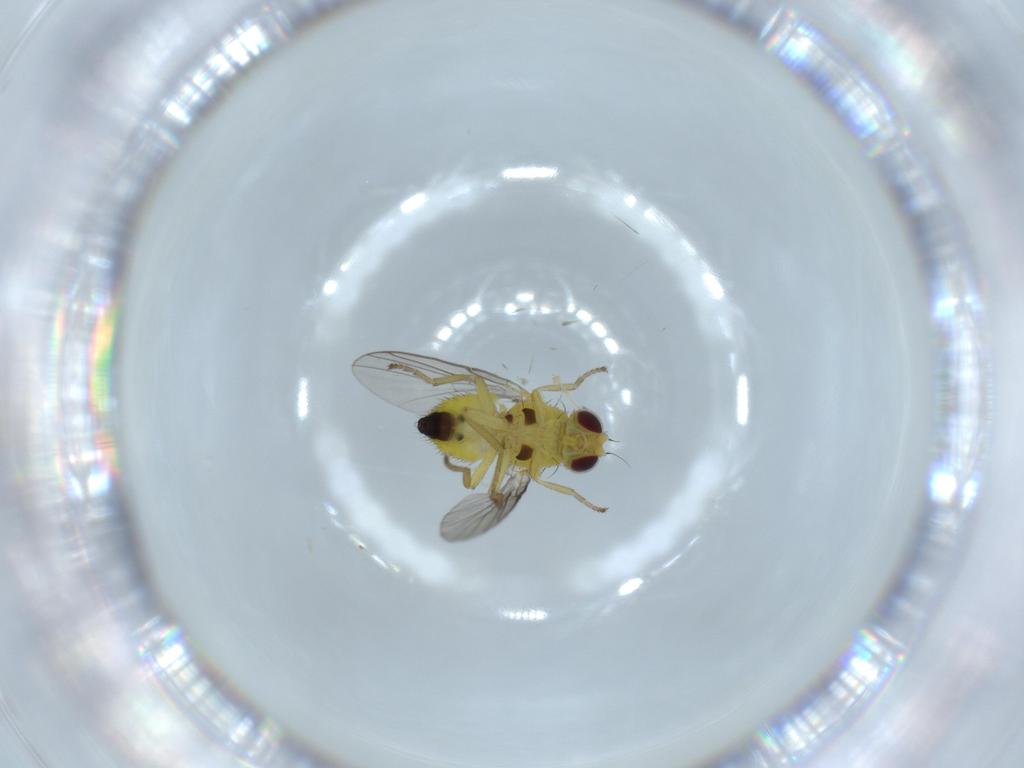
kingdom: Animalia
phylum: Arthropoda
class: Insecta
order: Diptera
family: Agromyzidae
